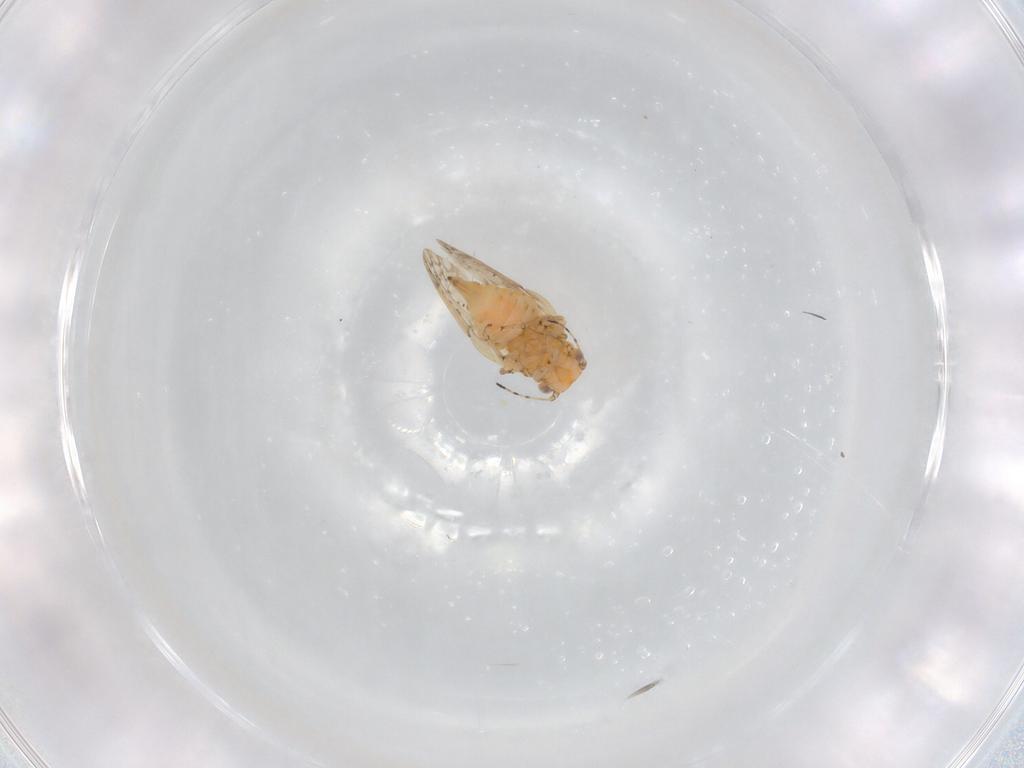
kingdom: Animalia
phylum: Arthropoda
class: Insecta
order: Hemiptera
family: Psylloidea_incertae_sedis
